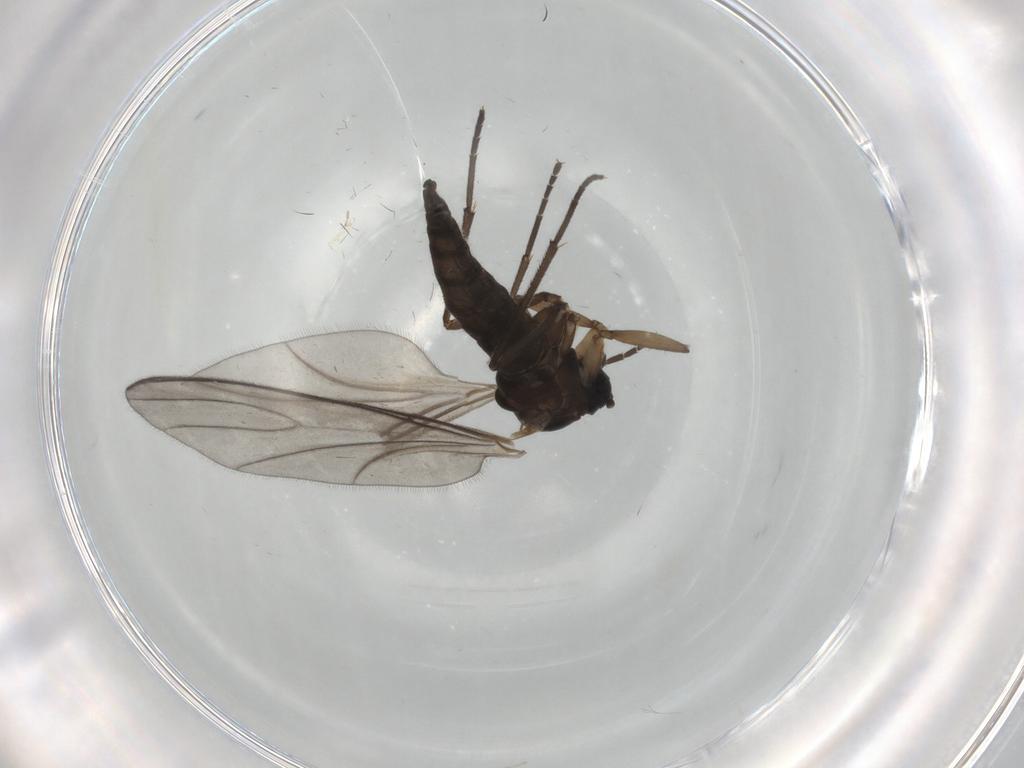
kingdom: Animalia
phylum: Arthropoda
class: Insecta
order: Diptera
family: Sciaridae
